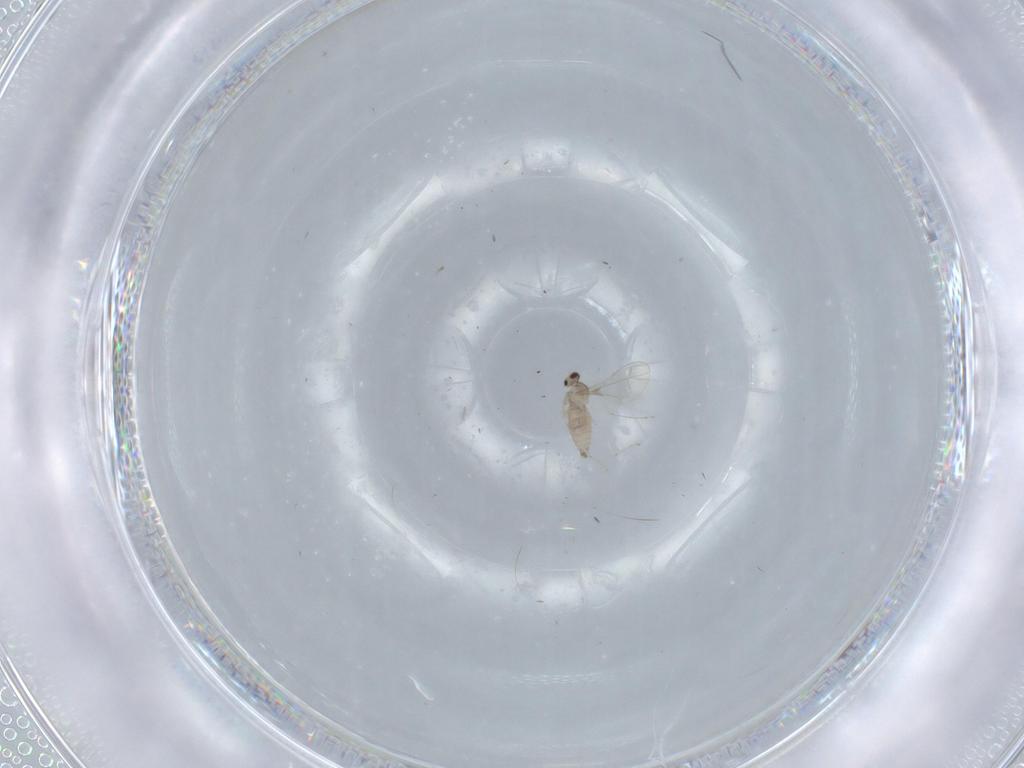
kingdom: Animalia
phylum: Arthropoda
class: Insecta
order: Diptera
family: Cecidomyiidae
